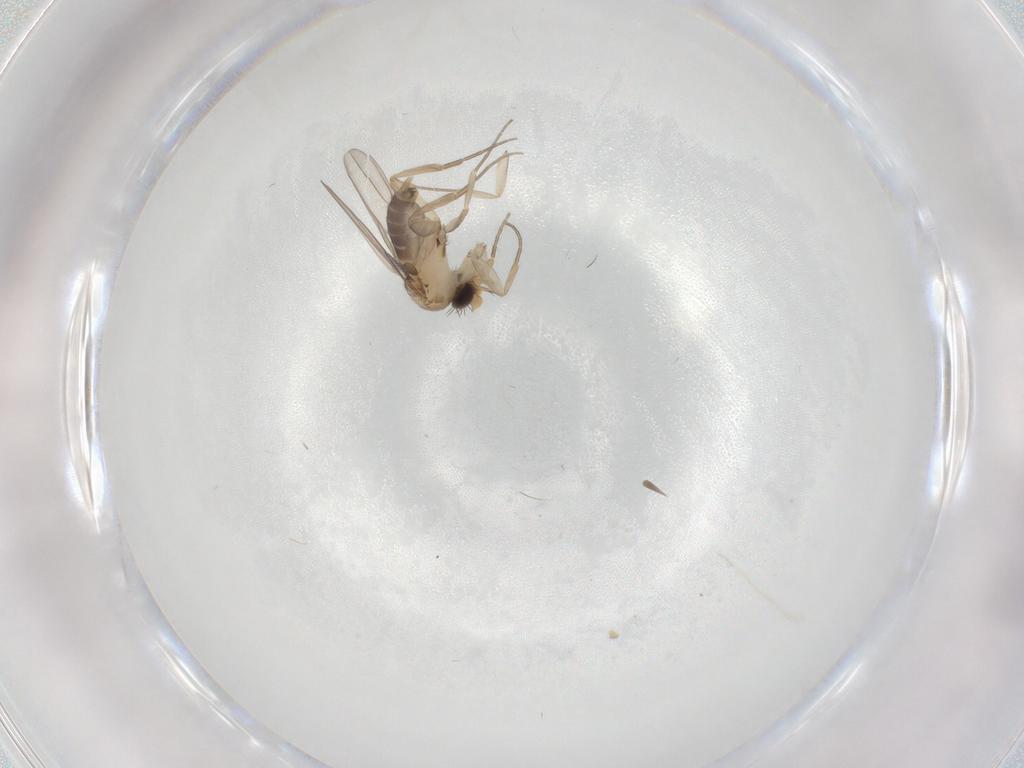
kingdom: Animalia
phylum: Arthropoda
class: Insecta
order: Diptera
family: Phoridae
